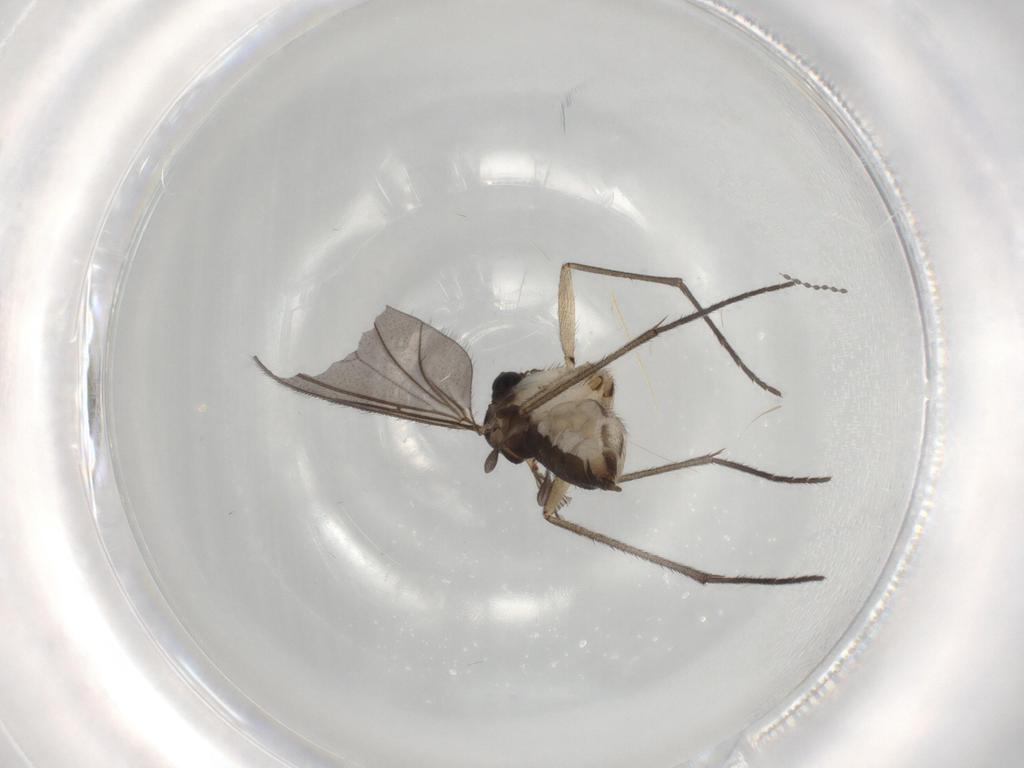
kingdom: Animalia
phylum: Arthropoda
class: Insecta
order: Diptera
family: Sciaridae
